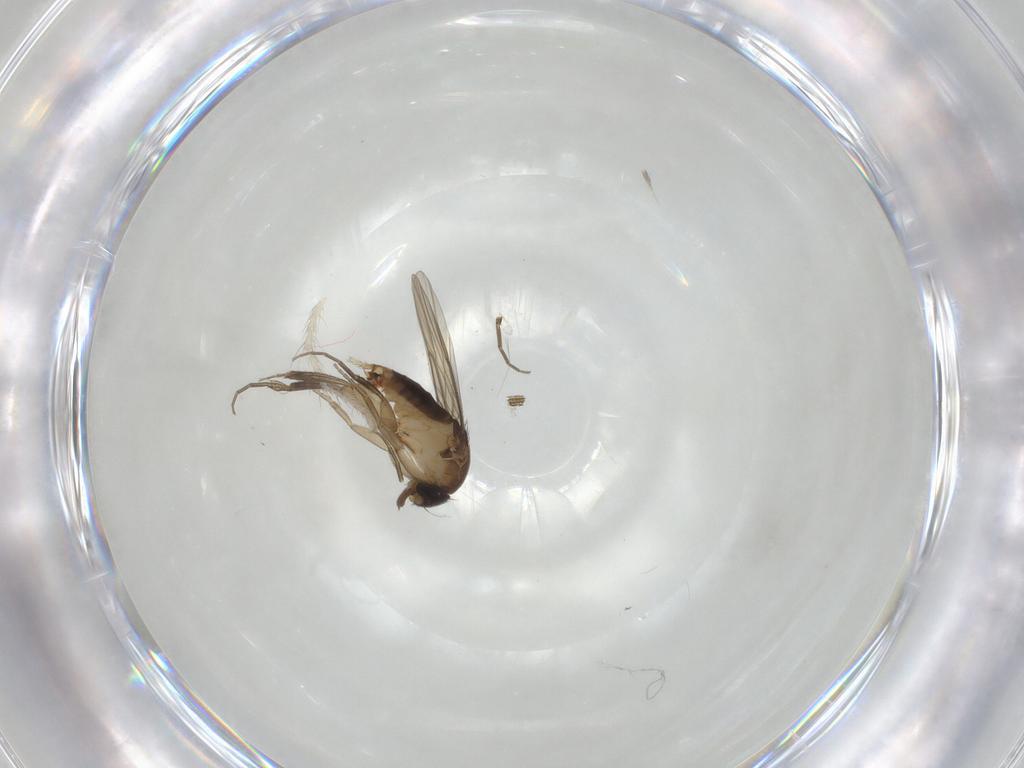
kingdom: Animalia
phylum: Arthropoda
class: Insecta
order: Diptera
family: Phoridae
